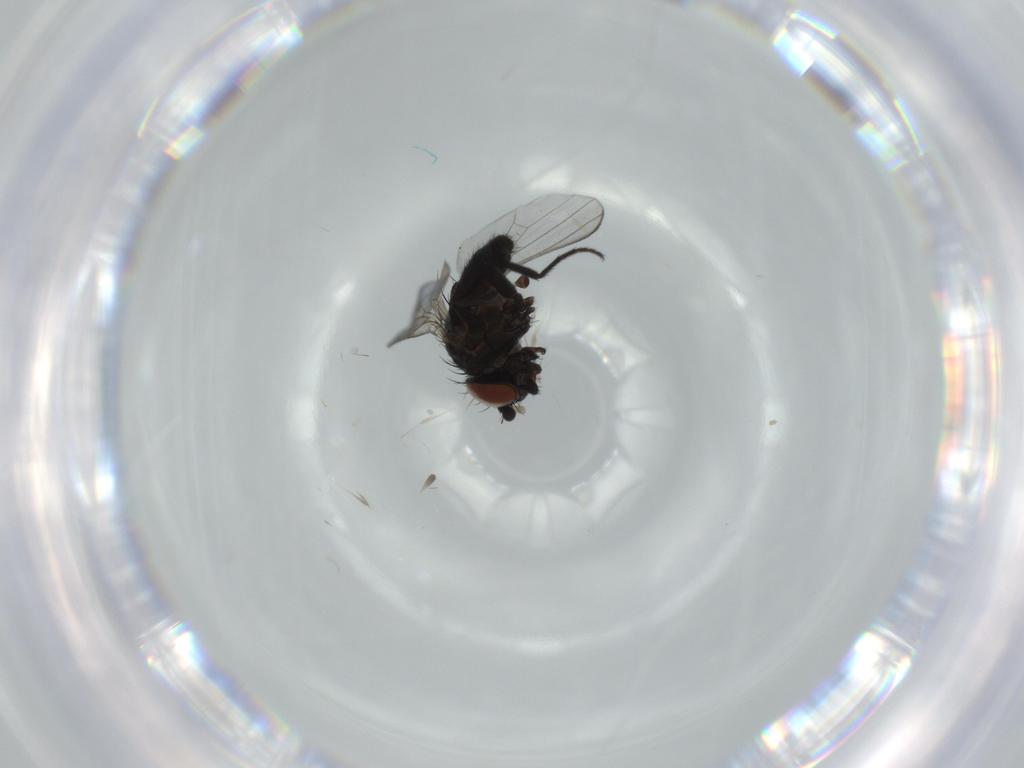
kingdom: Animalia
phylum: Arthropoda
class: Insecta
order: Diptera
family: Milichiidae
